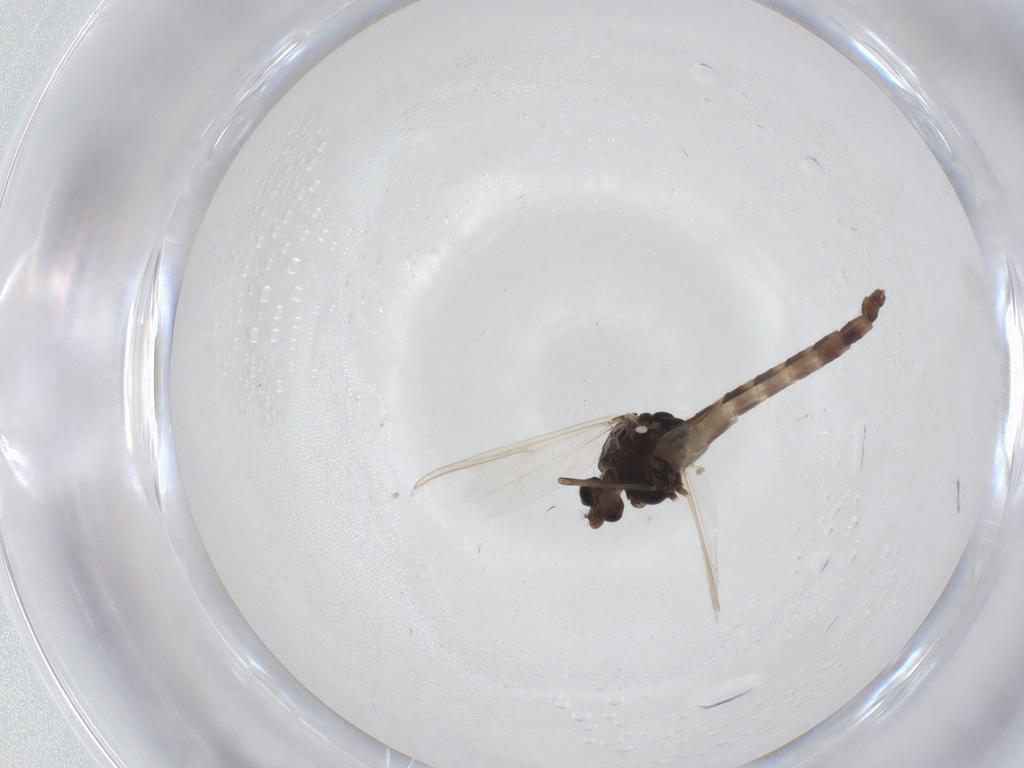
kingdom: Animalia
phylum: Arthropoda
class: Insecta
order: Diptera
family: Chironomidae
